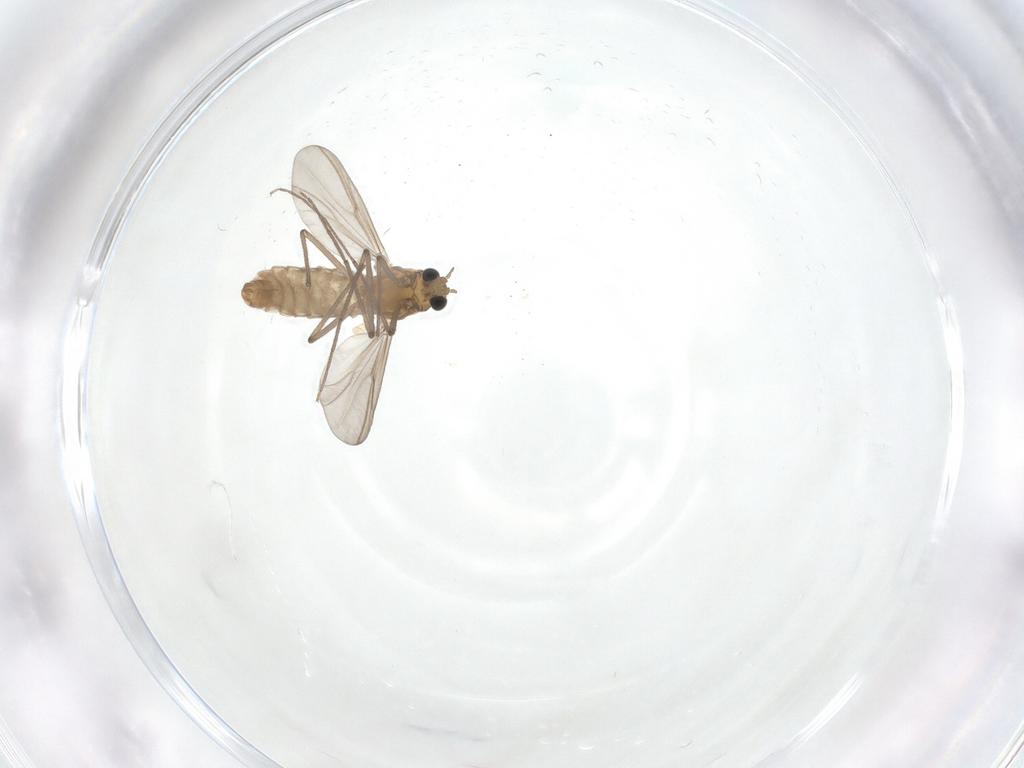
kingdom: Animalia
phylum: Arthropoda
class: Insecta
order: Diptera
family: Chironomidae
